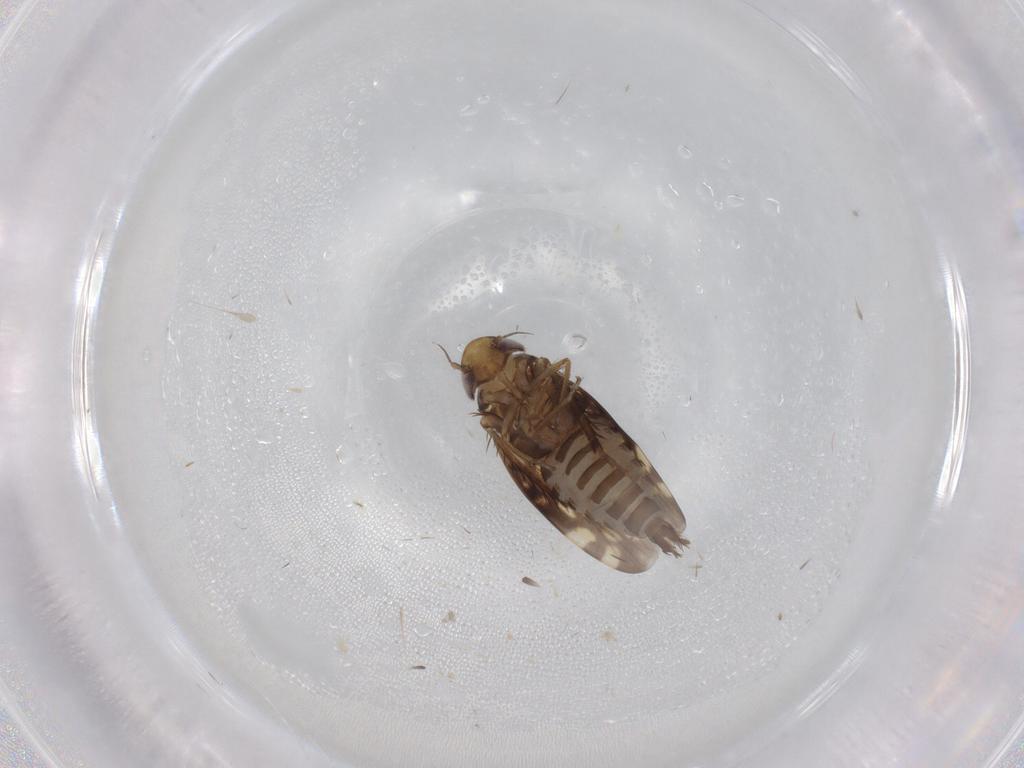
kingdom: Animalia
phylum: Arthropoda
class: Insecta
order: Hemiptera
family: Cicadellidae
